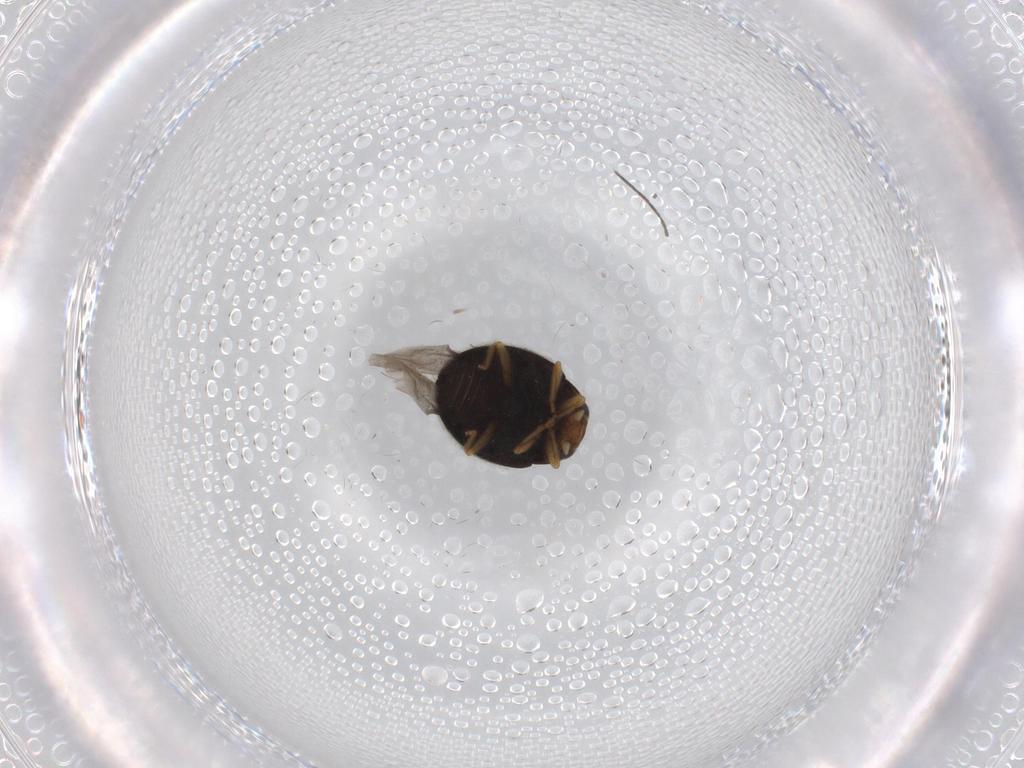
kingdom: Animalia
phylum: Arthropoda
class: Insecta
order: Coleoptera
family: Coccinellidae
